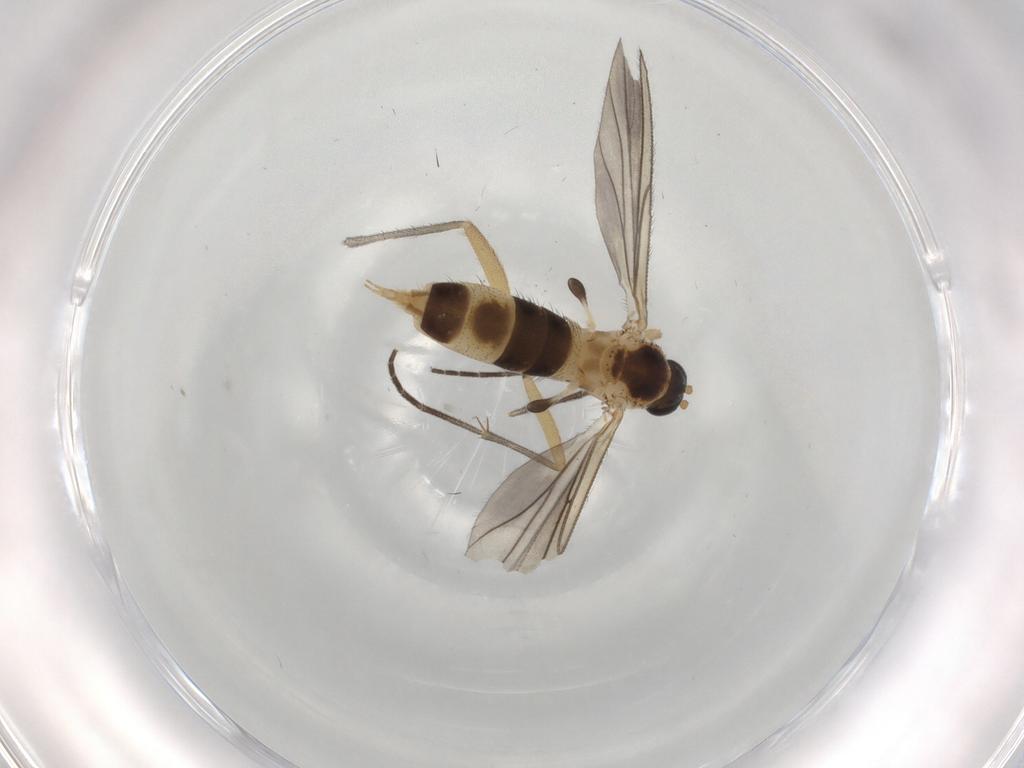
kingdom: Animalia
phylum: Arthropoda
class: Insecta
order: Diptera
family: Sciaridae
